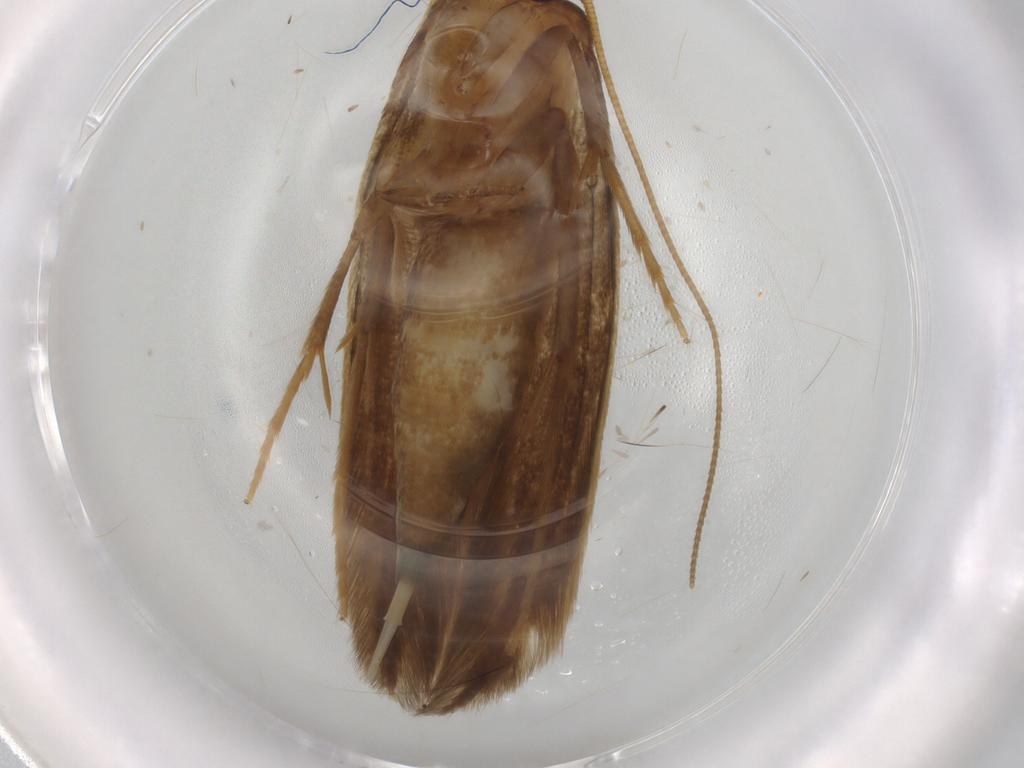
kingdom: Animalia
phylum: Arthropoda
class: Insecta
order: Lepidoptera
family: Tineidae
